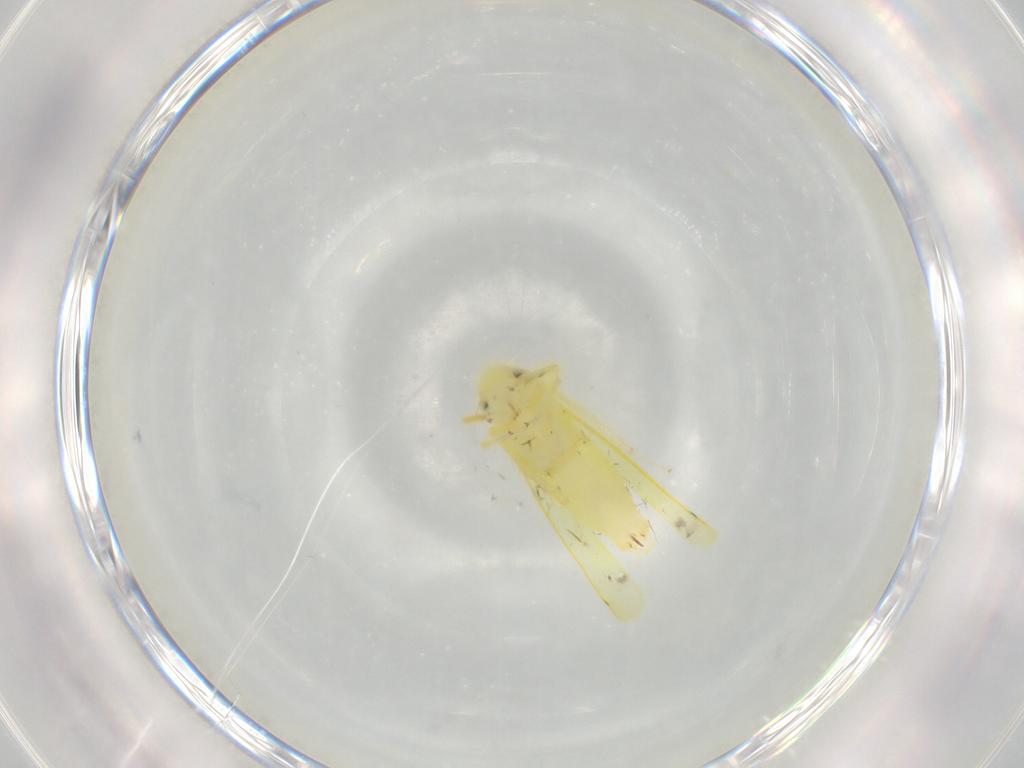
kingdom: Animalia
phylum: Arthropoda
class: Insecta
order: Hemiptera
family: Cicadellidae
